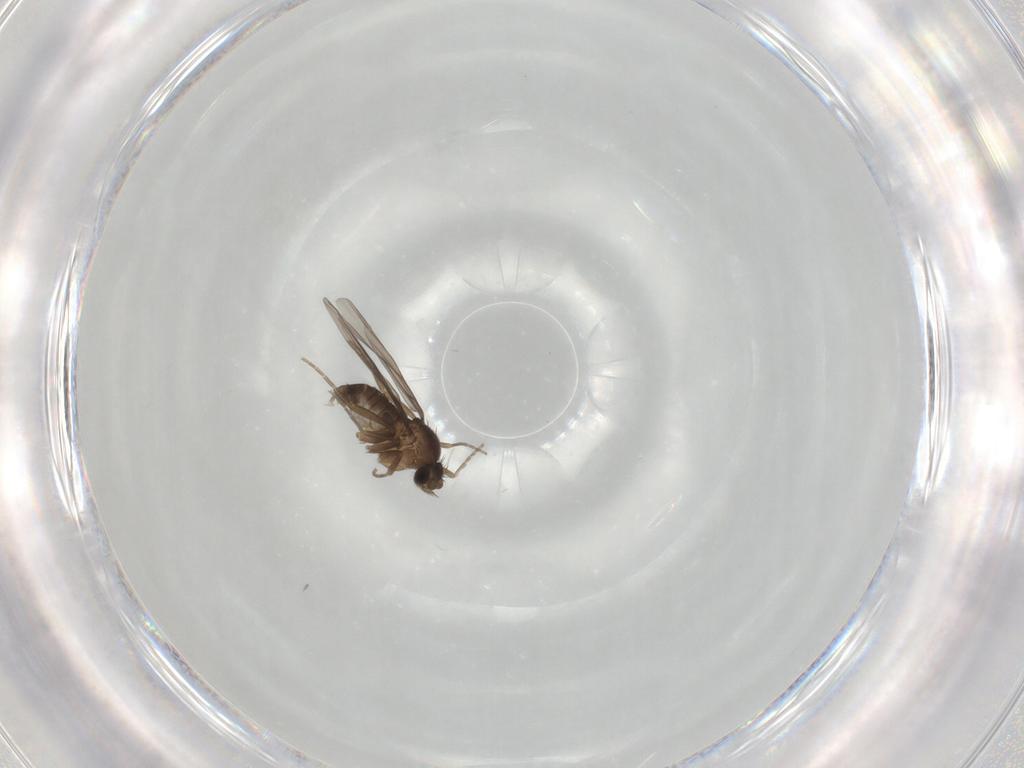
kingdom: Animalia
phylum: Arthropoda
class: Insecta
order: Diptera
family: Phoridae
